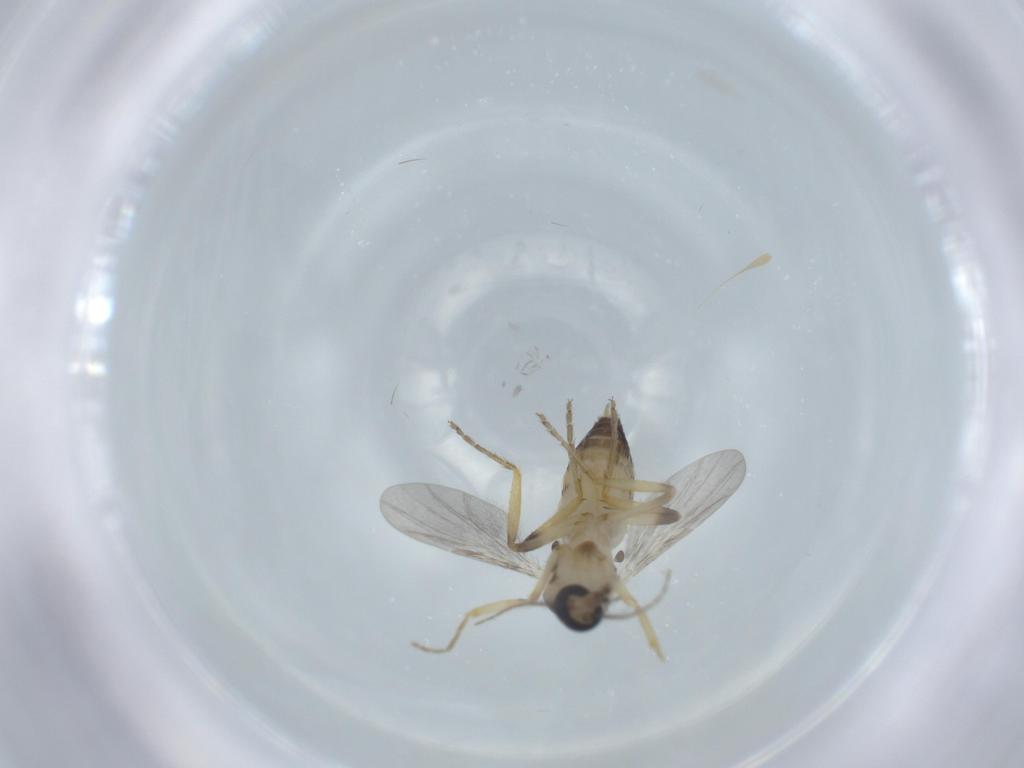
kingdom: Animalia
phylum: Arthropoda
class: Insecta
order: Diptera
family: Ceratopogonidae
